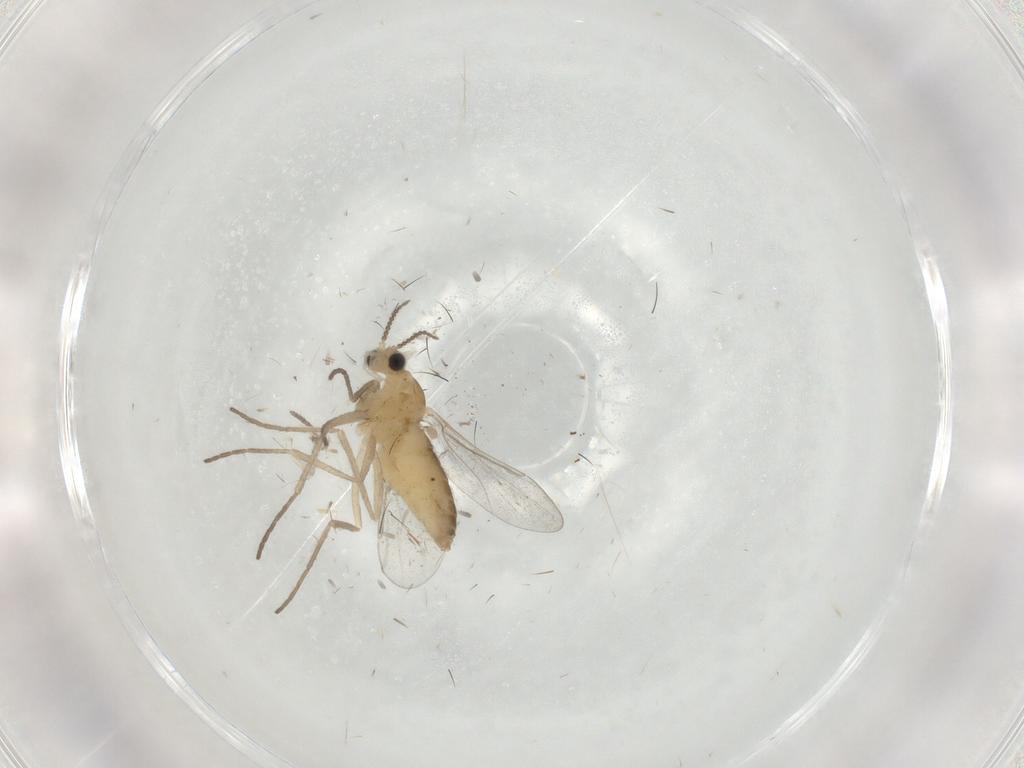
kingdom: Animalia
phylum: Arthropoda
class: Insecta
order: Diptera
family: Cecidomyiidae
